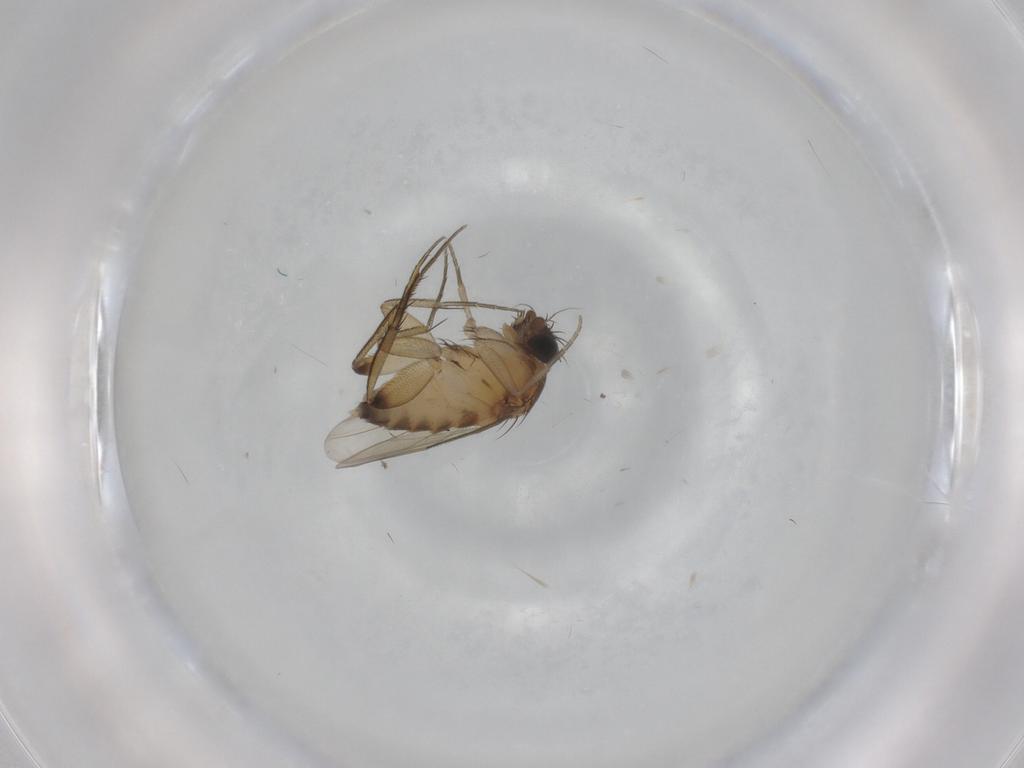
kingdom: Animalia
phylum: Arthropoda
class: Insecta
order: Diptera
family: Phoridae
